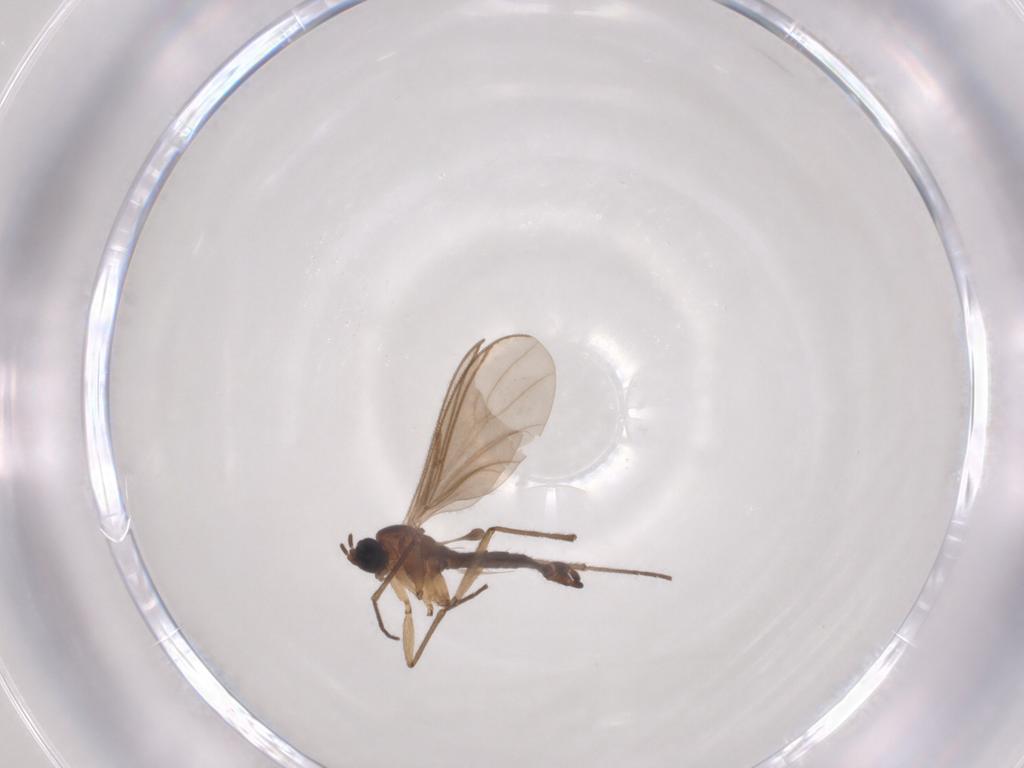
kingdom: Animalia
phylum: Arthropoda
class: Insecta
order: Diptera
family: Sciaridae
